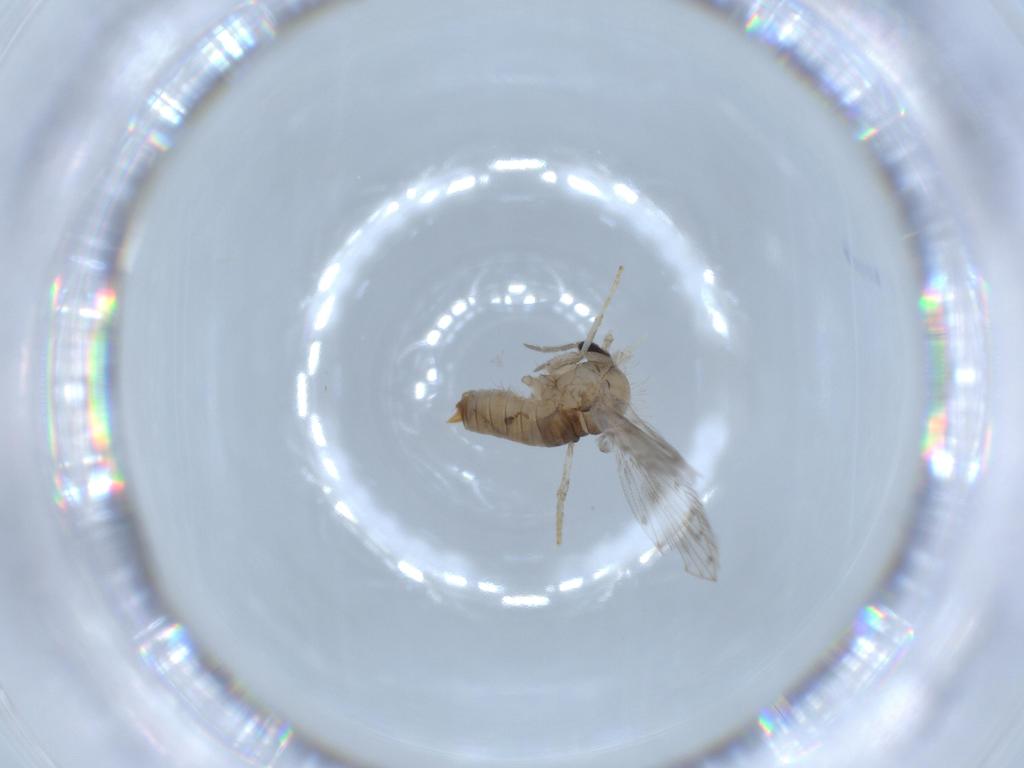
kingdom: Animalia
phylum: Arthropoda
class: Insecta
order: Diptera
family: Psychodidae
